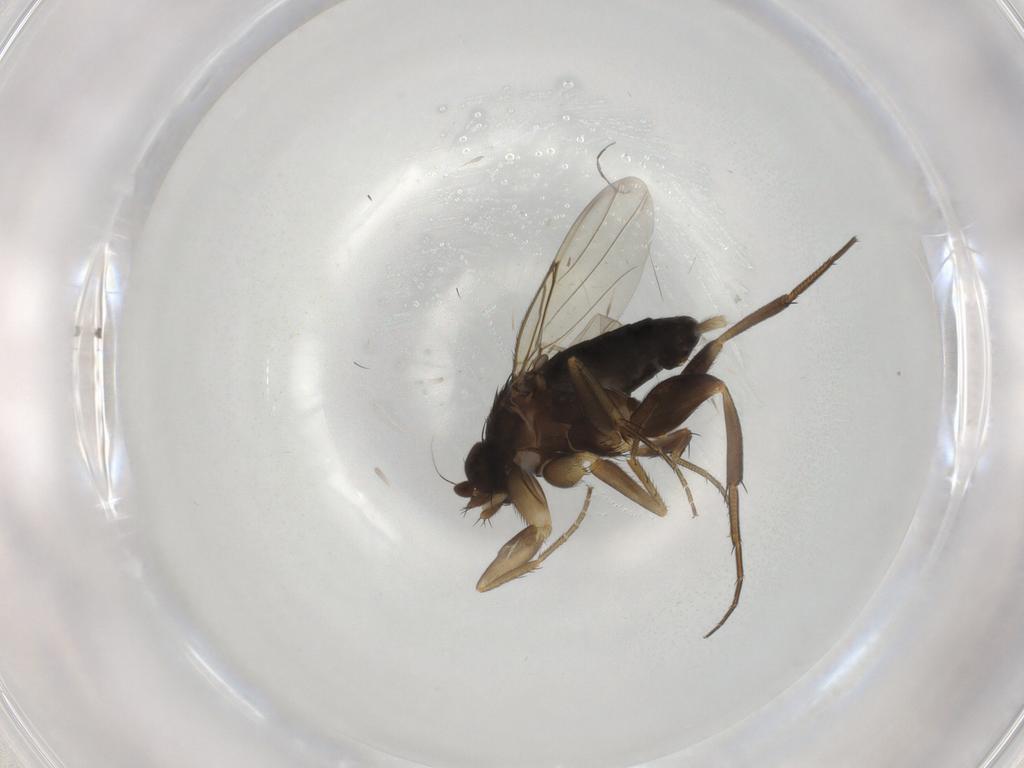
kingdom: Animalia
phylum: Arthropoda
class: Insecta
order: Diptera
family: Phoridae
